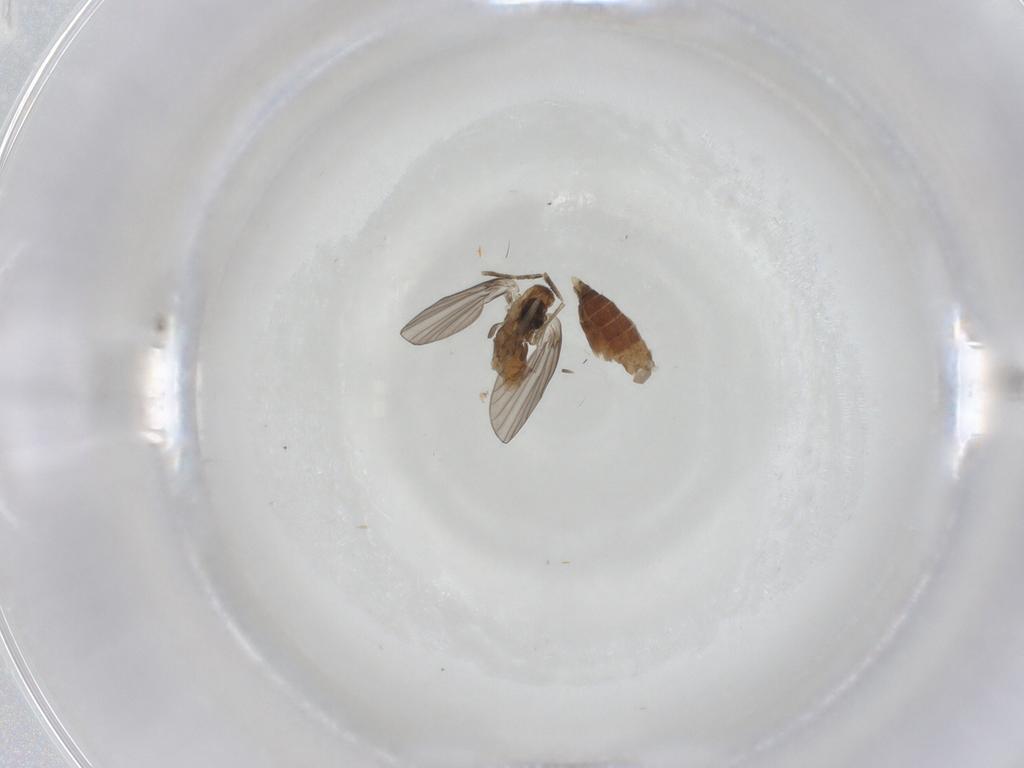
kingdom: Animalia
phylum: Arthropoda
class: Insecta
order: Diptera
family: Psychodidae
